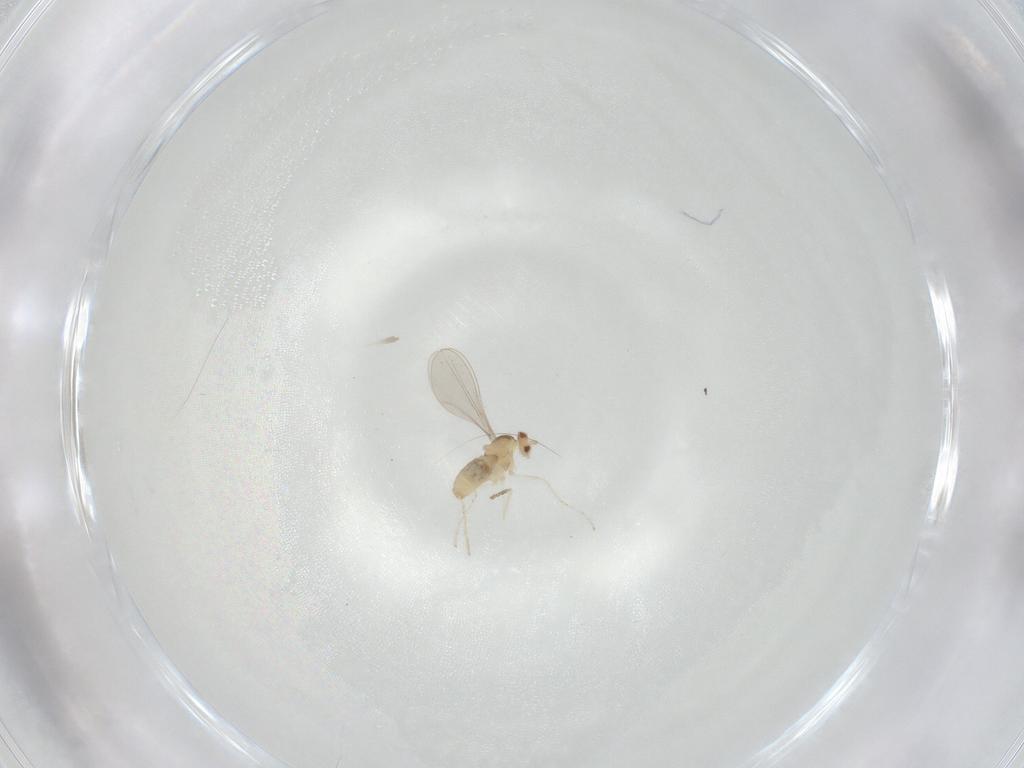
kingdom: Animalia
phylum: Arthropoda
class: Insecta
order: Diptera
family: Cecidomyiidae
